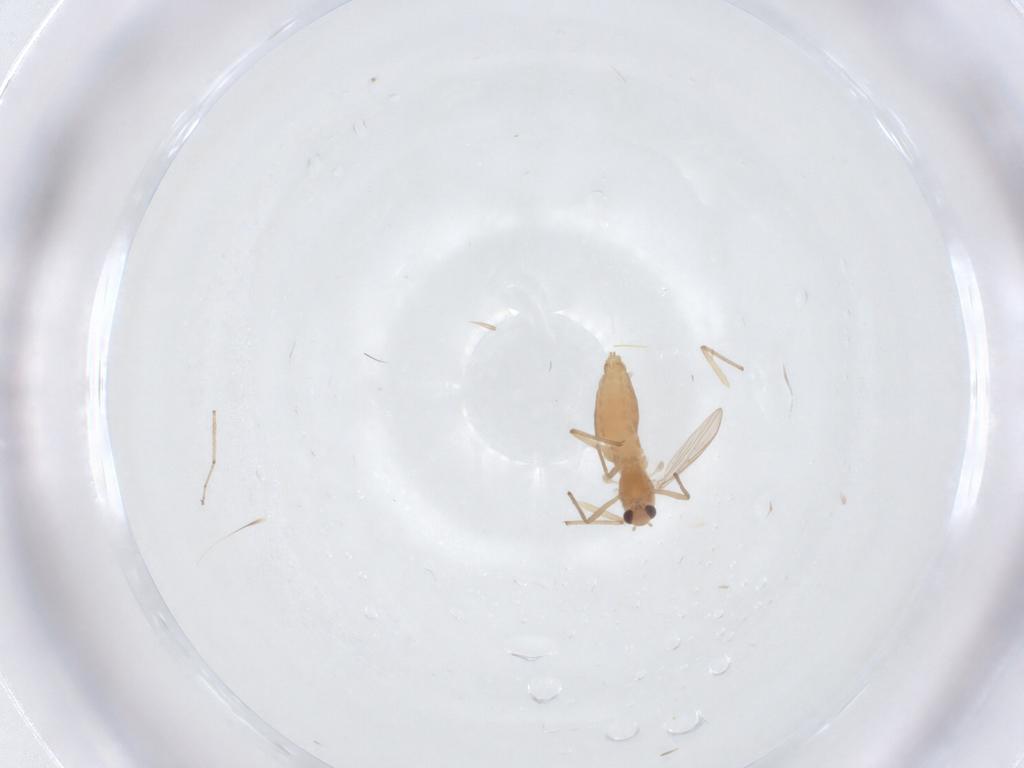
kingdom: Animalia
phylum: Arthropoda
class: Insecta
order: Diptera
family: Chironomidae
